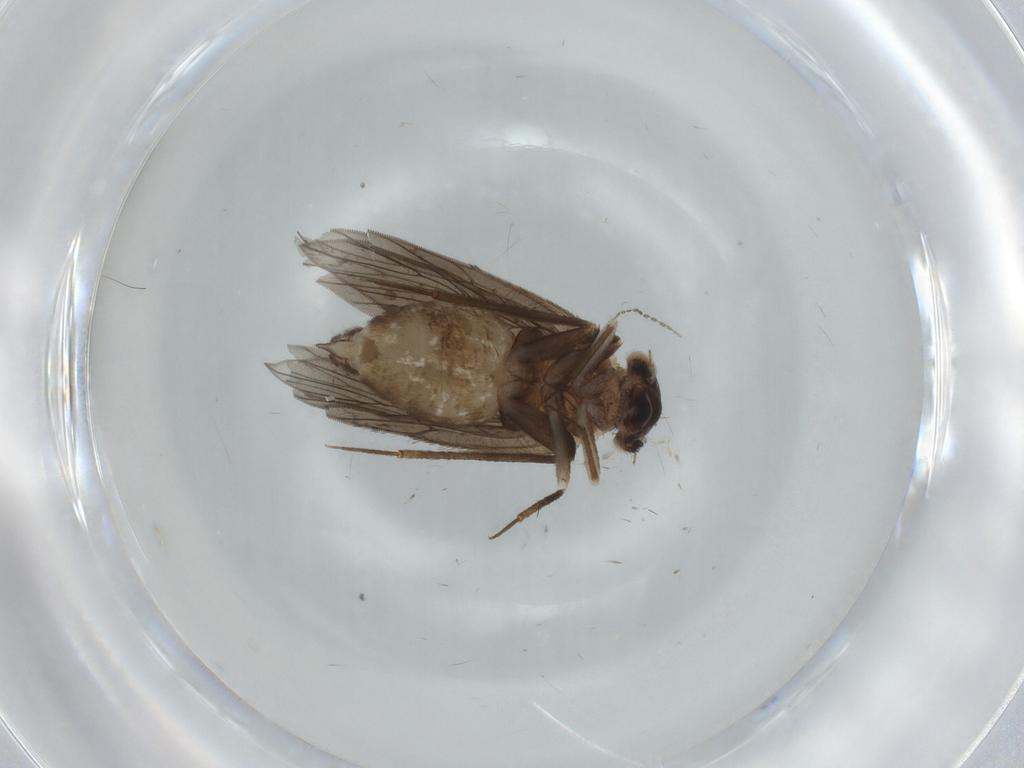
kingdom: Animalia
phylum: Arthropoda
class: Insecta
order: Psocodea
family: Lepidopsocidae
